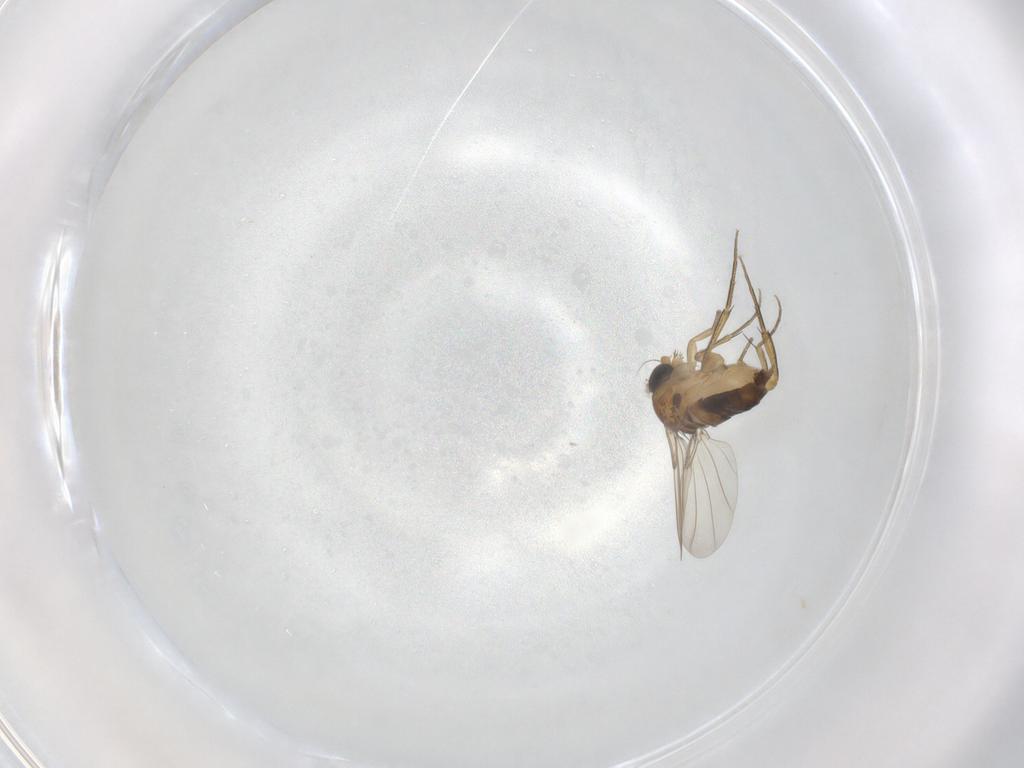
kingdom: Animalia
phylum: Arthropoda
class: Insecta
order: Diptera
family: Phoridae
